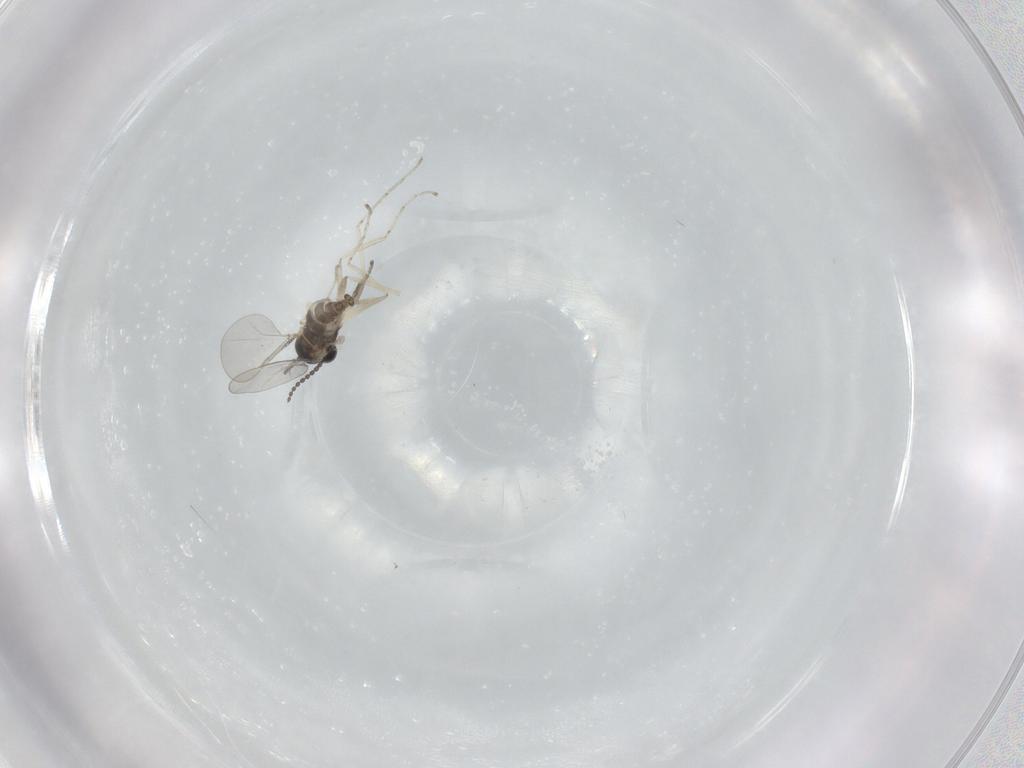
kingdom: Animalia
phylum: Arthropoda
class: Insecta
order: Diptera
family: Cecidomyiidae
